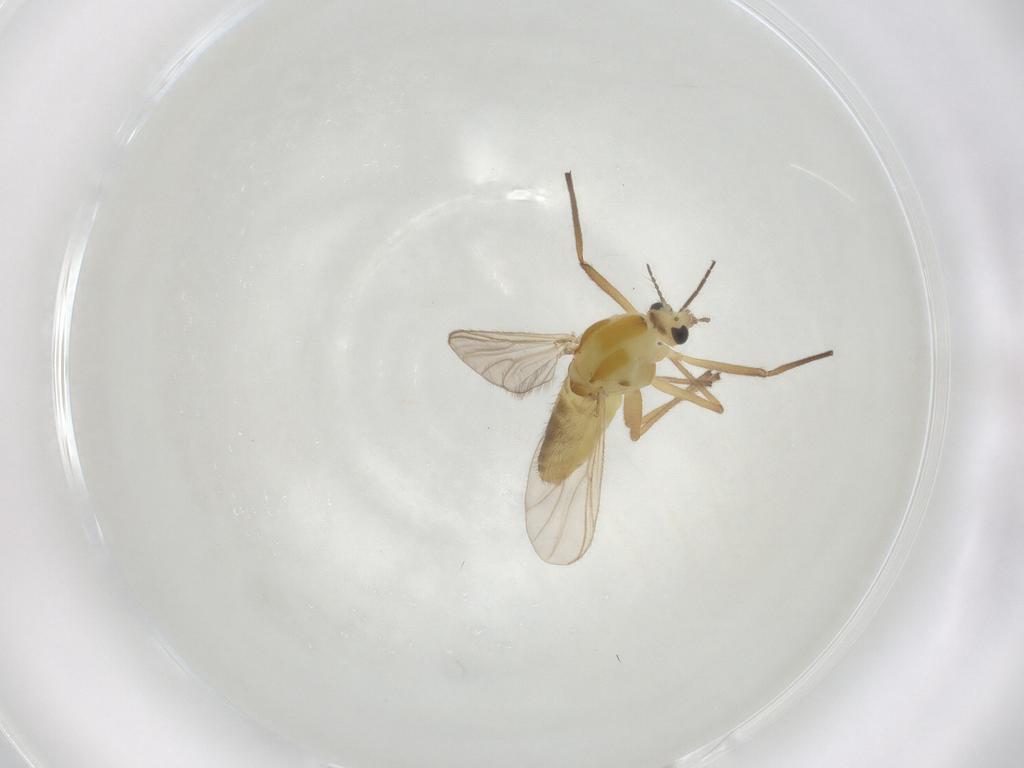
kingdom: Animalia
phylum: Arthropoda
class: Insecta
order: Diptera
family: Chironomidae
